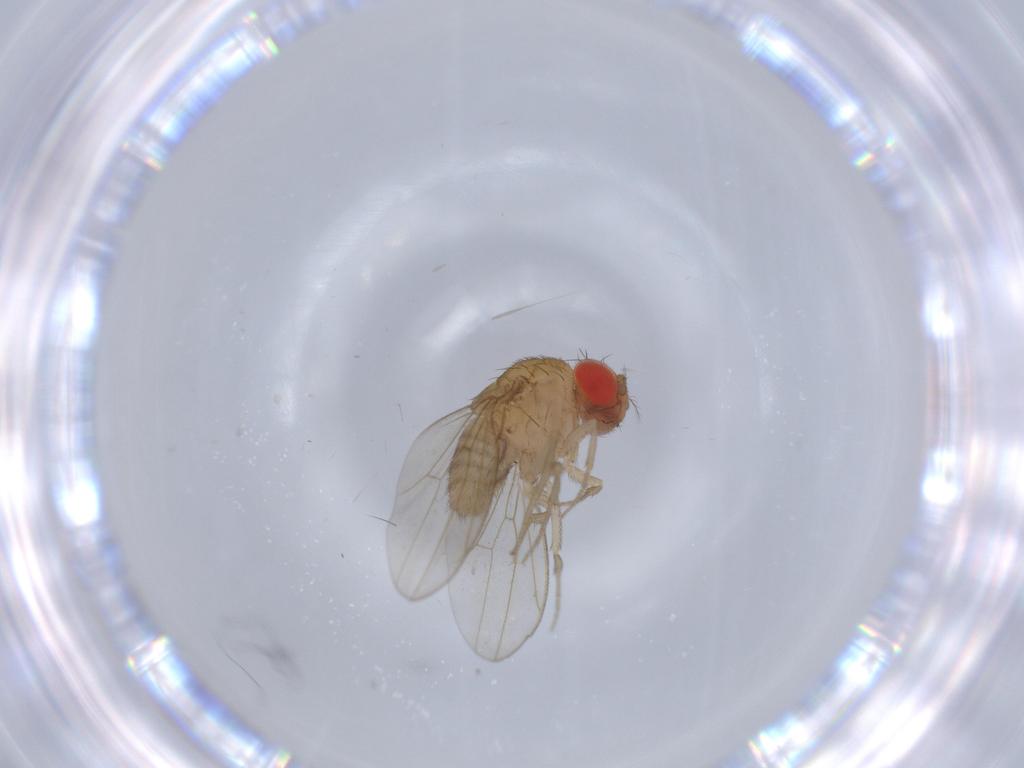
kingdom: Animalia
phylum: Arthropoda
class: Insecta
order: Diptera
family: Drosophilidae
